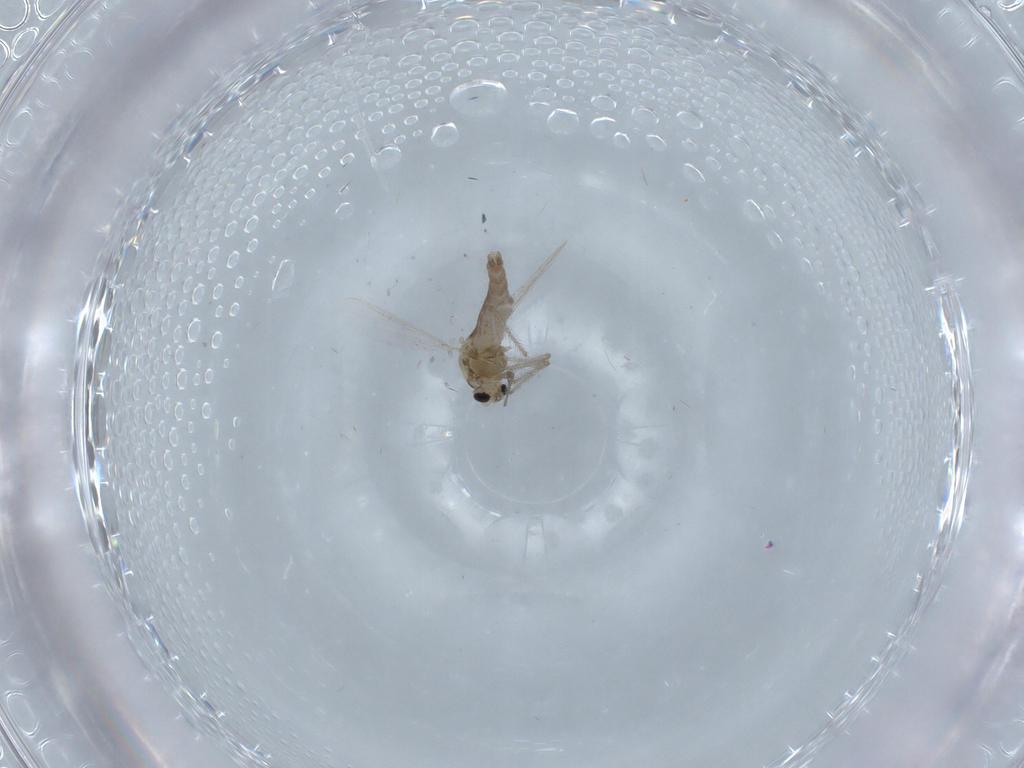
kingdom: Animalia
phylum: Arthropoda
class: Insecta
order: Diptera
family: Chironomidae
